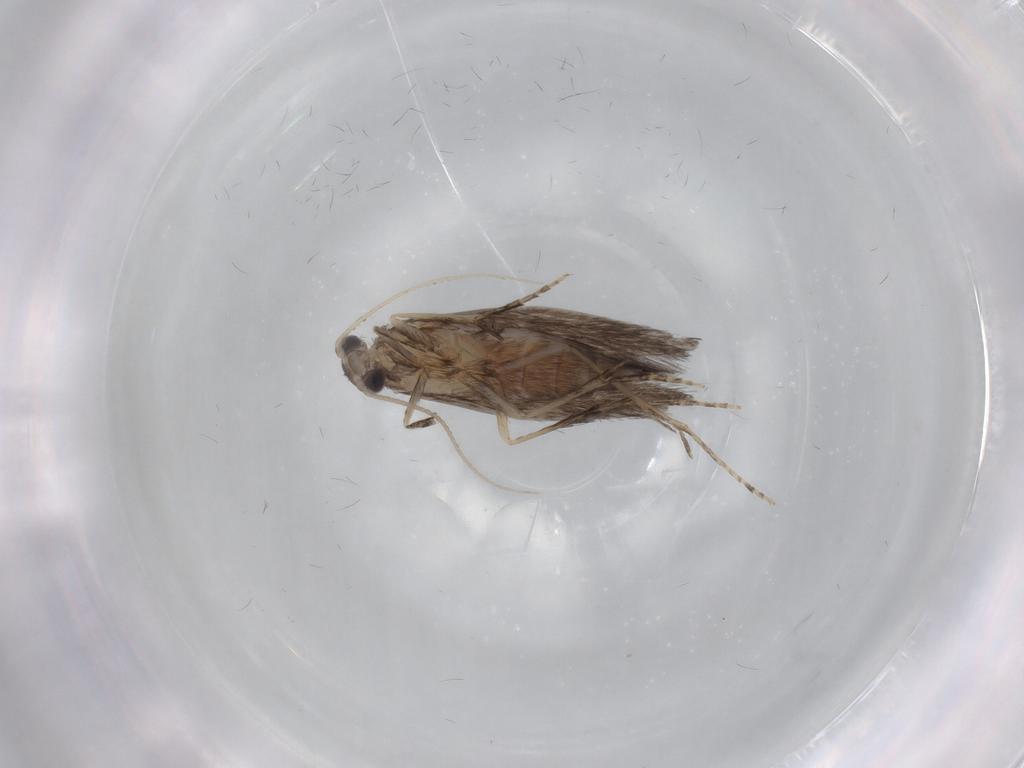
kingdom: Animalia
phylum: Arthropoda
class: Insecta
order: Trichoptera
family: Hydroptilidae
